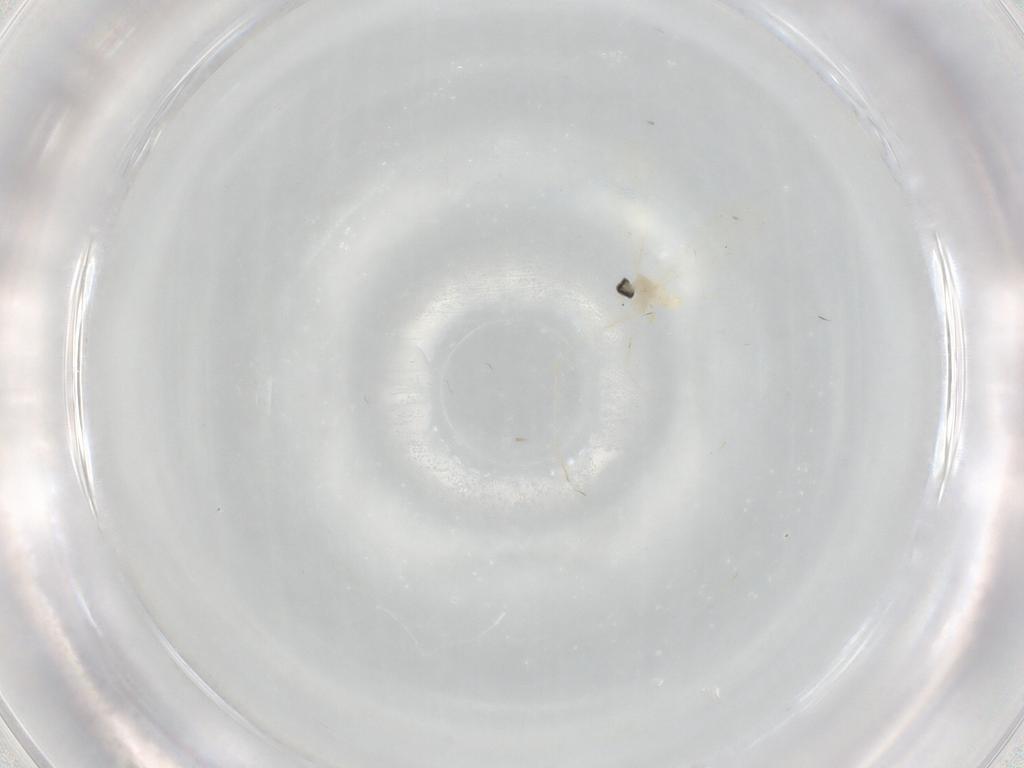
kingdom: Animalia
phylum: Arthropoda
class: Insecta
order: Diptera
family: Cecidomyiidae
